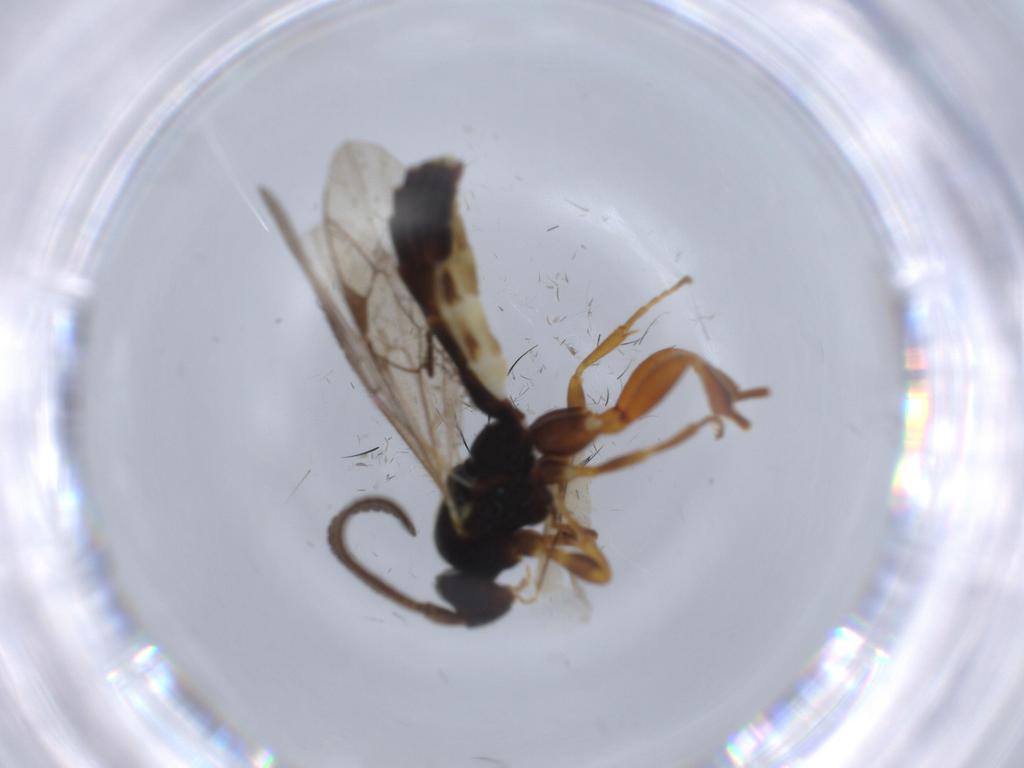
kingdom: Animalia
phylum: Arthropoda
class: Insecta
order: Hymenoptera
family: Ichneumonidae
